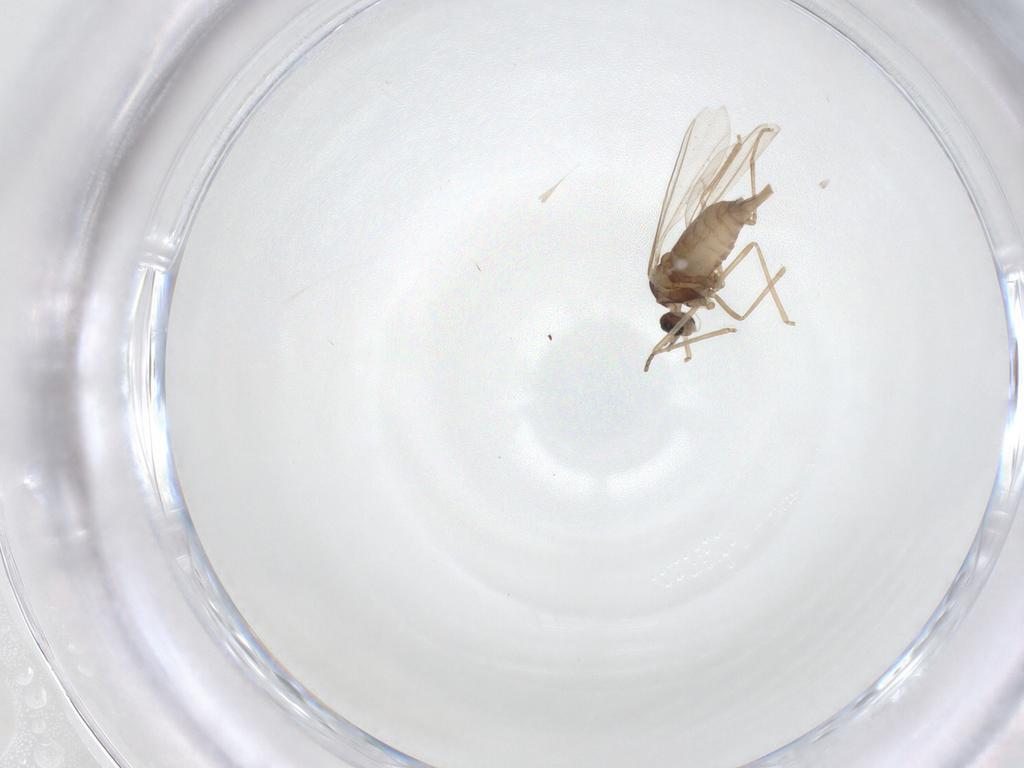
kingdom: Animalia
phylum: Arthropoda
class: Insecta
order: Diptera
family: Cecidomyiidae
